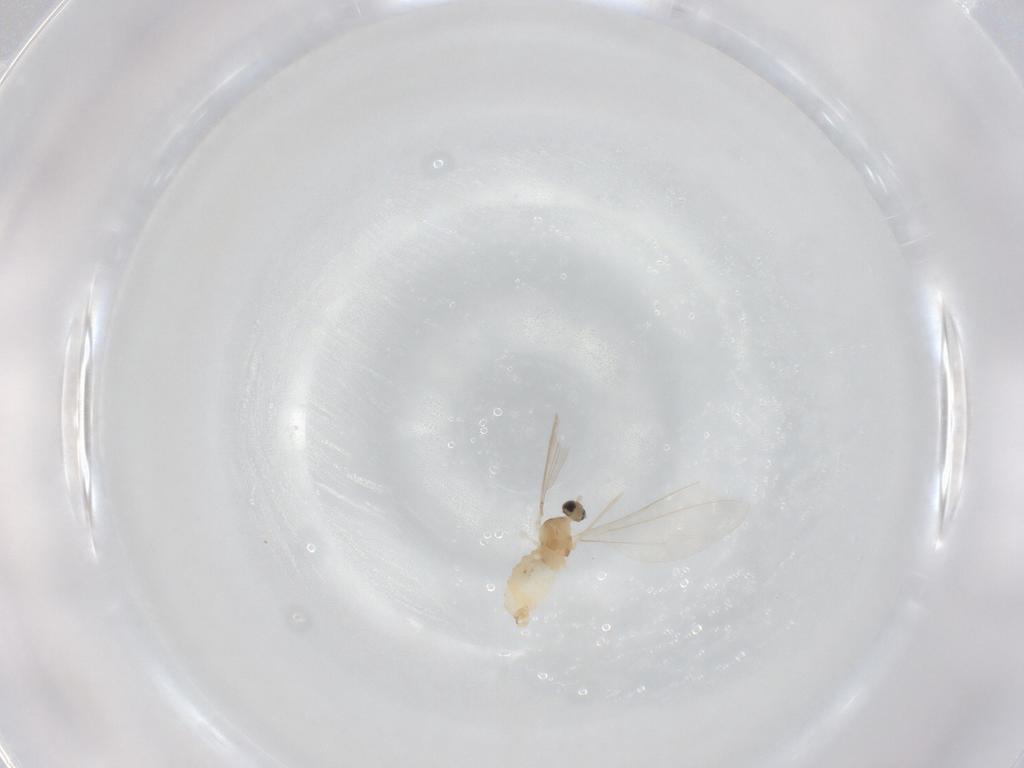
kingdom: Animalia
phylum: Arthropoda
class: Insecta
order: Diptera
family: Cecidomyiidae
